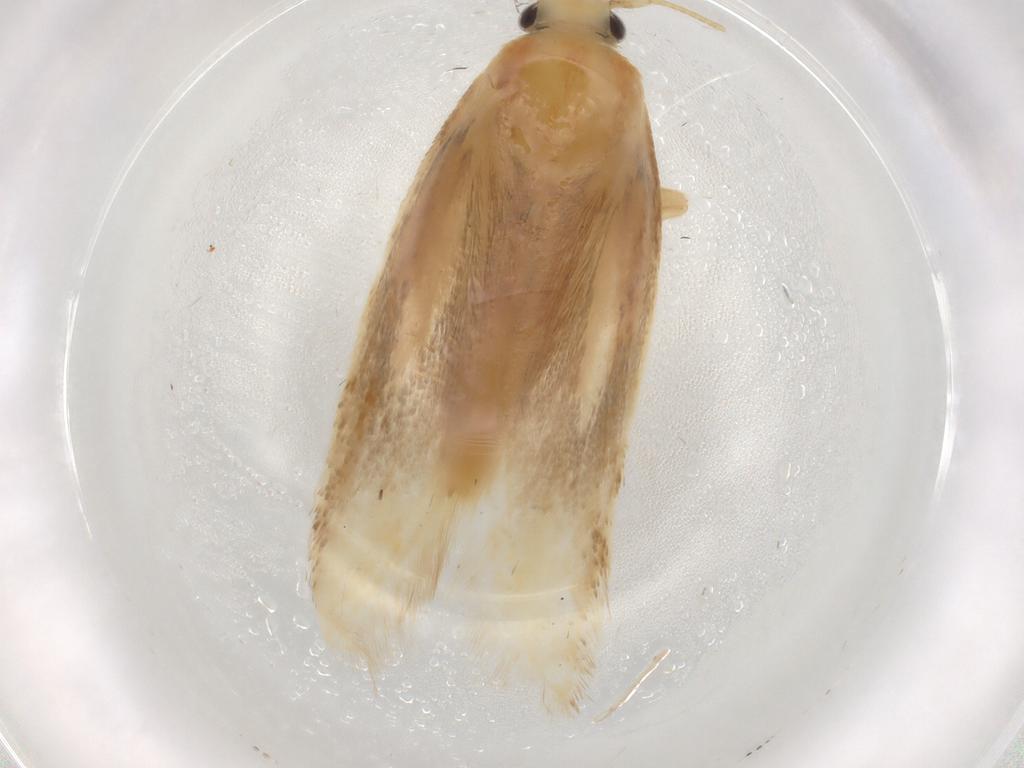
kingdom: Animalia
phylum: Arthropoda
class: Insecta
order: Lepidoptera
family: Geometridae
